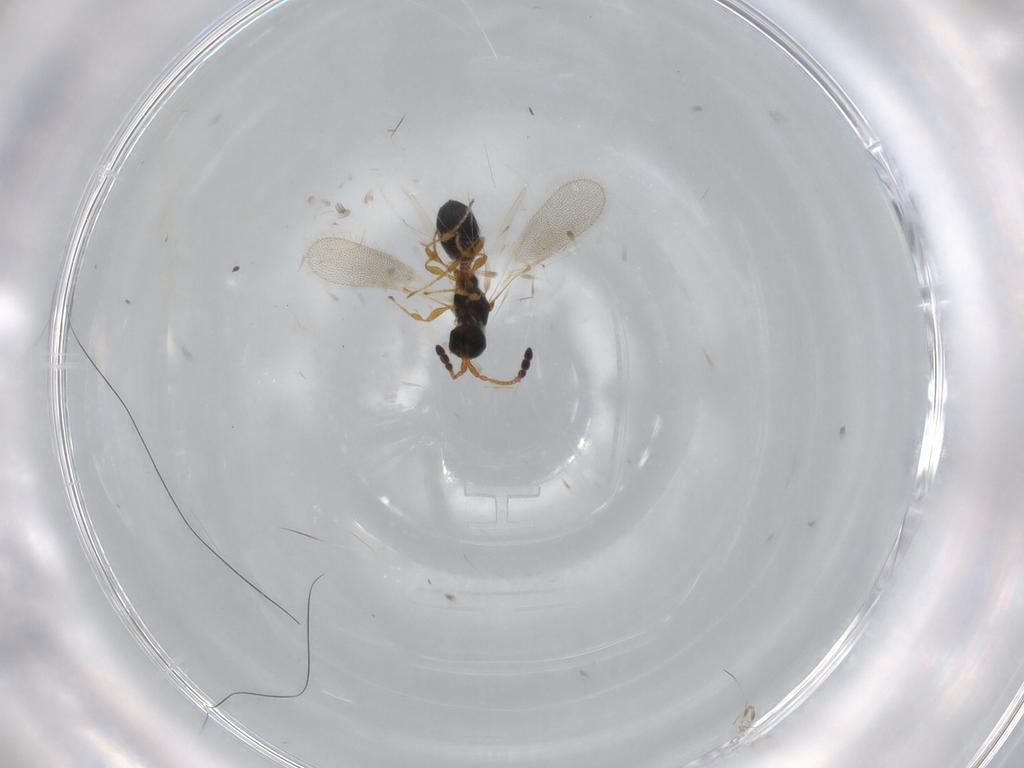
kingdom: Animalia
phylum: Arthropoda
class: Insecta
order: Hymenoptera
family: Diapriidae
